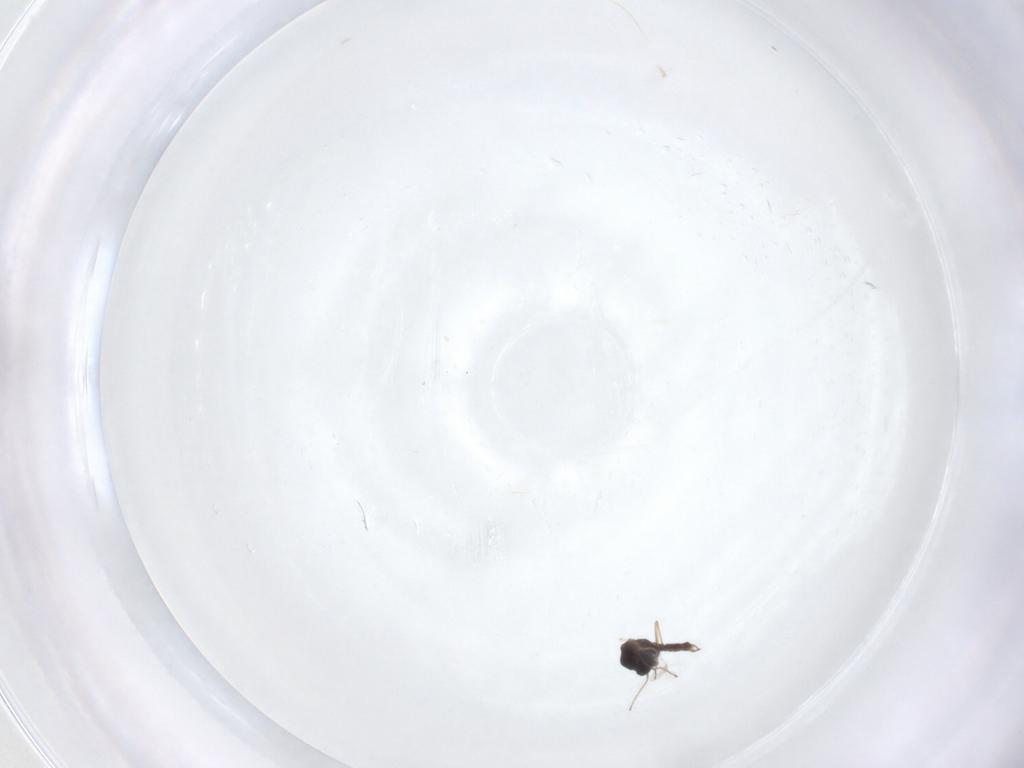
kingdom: Animalia
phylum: Arthropoda
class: Insecta
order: Diptera
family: Chironomidae
